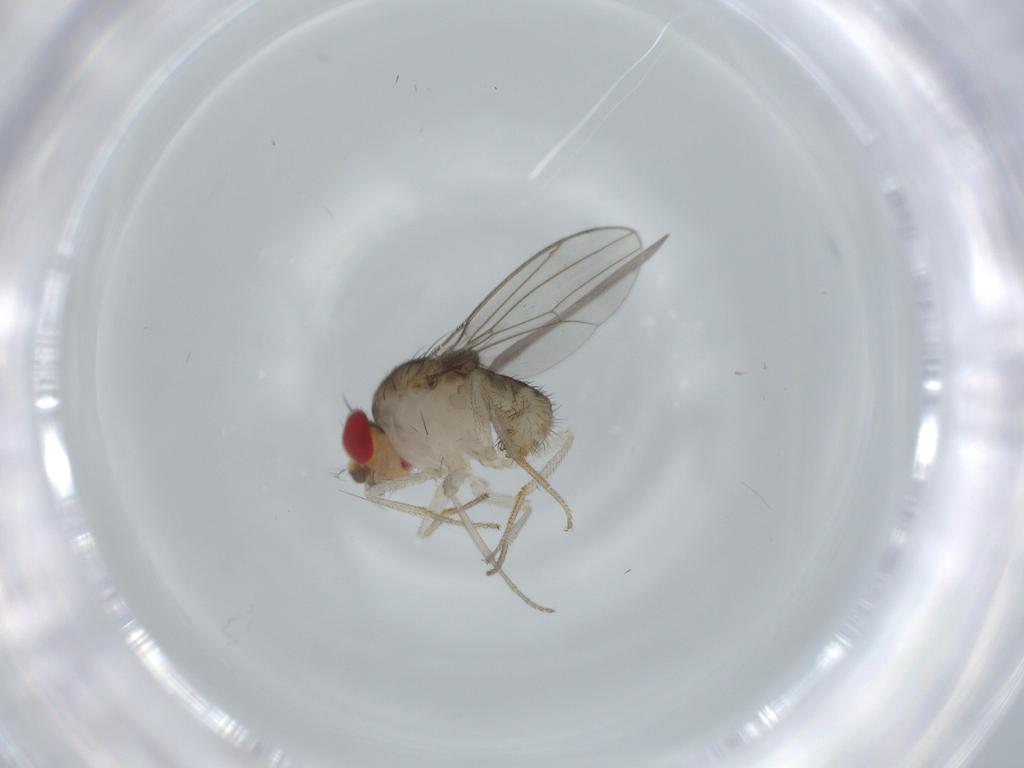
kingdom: Animalia
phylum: Arthropoda
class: Insecta
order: Diptera
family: Drosophilidae
